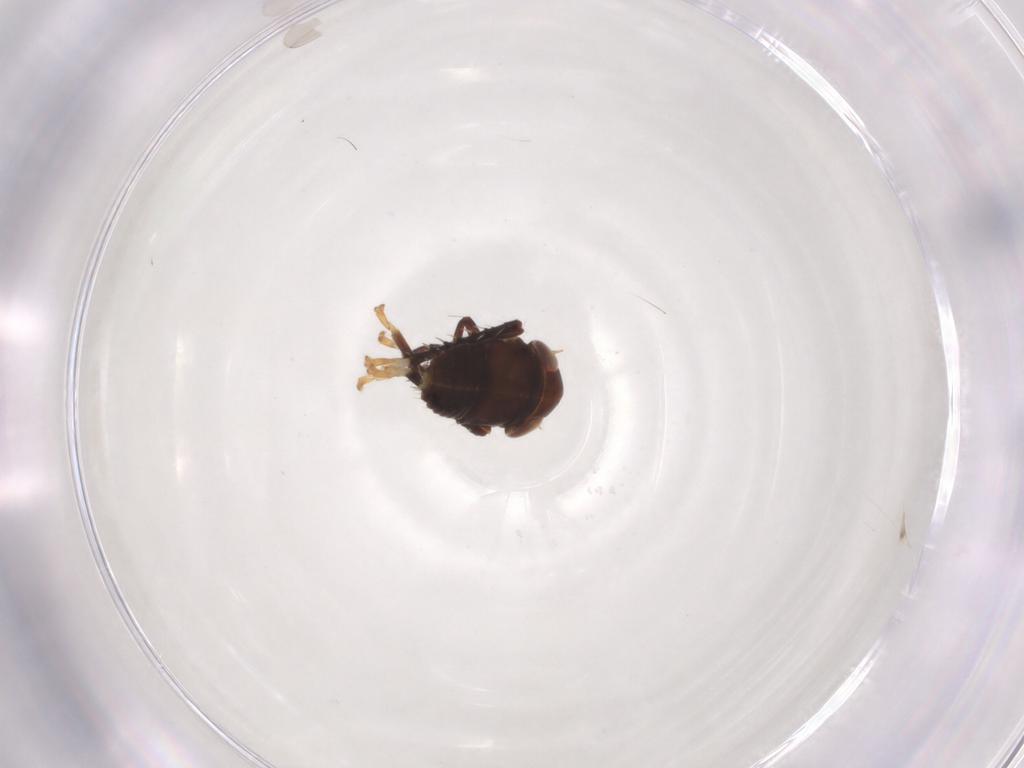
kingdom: Animalia
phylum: Arthropoda
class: Insecta
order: Hemiptera
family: Cicadellidae
